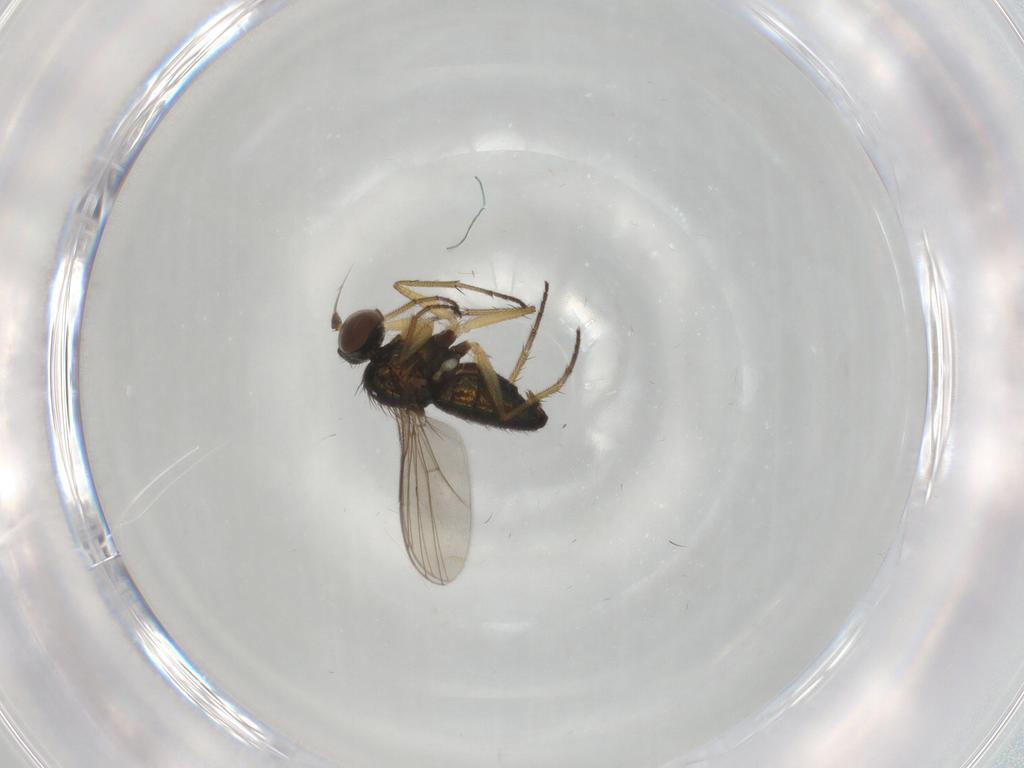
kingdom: Animalia
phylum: Arthropoda
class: Insecta
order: Diptera
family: Dolichopodidae
